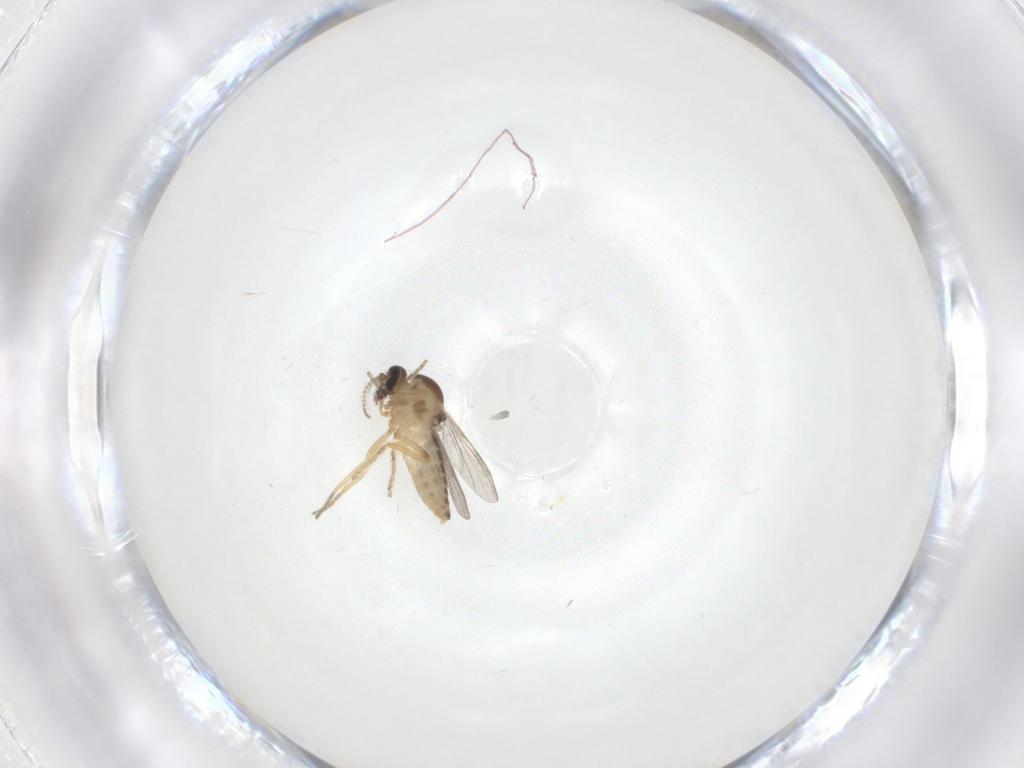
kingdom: Animalia
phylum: Arthropoda
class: Insecta
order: Diptera
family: Ceratopogonidae
